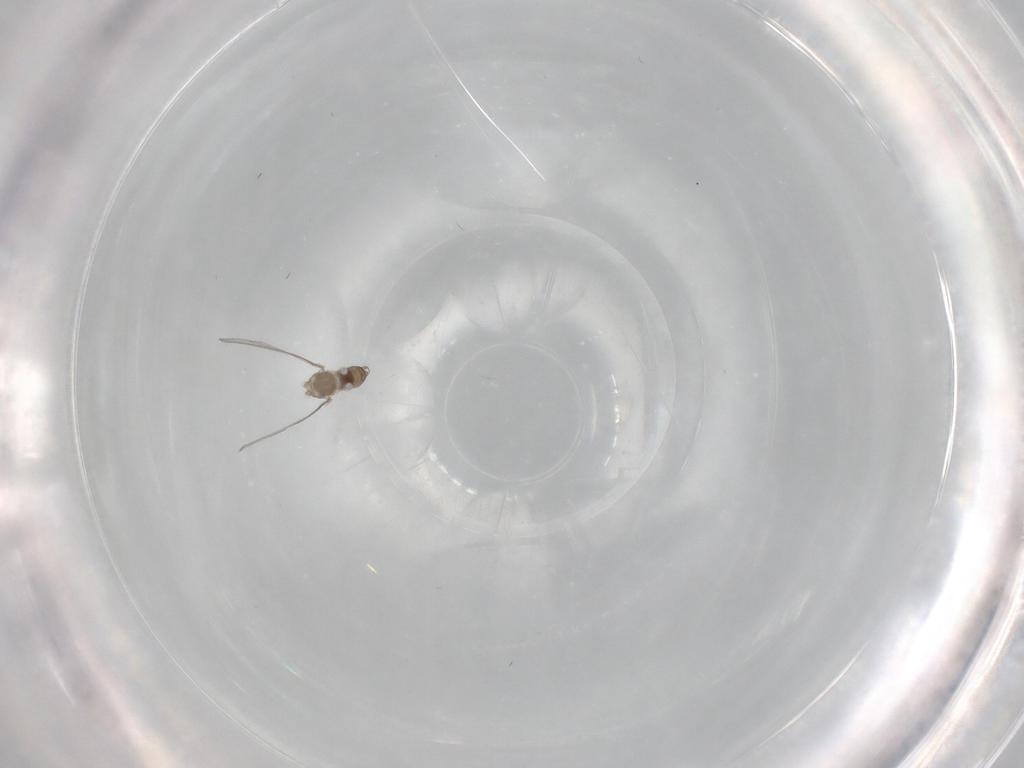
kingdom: Animalia
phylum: Arthropoda
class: Insecta
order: Diptera
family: Cecidomyiidae
